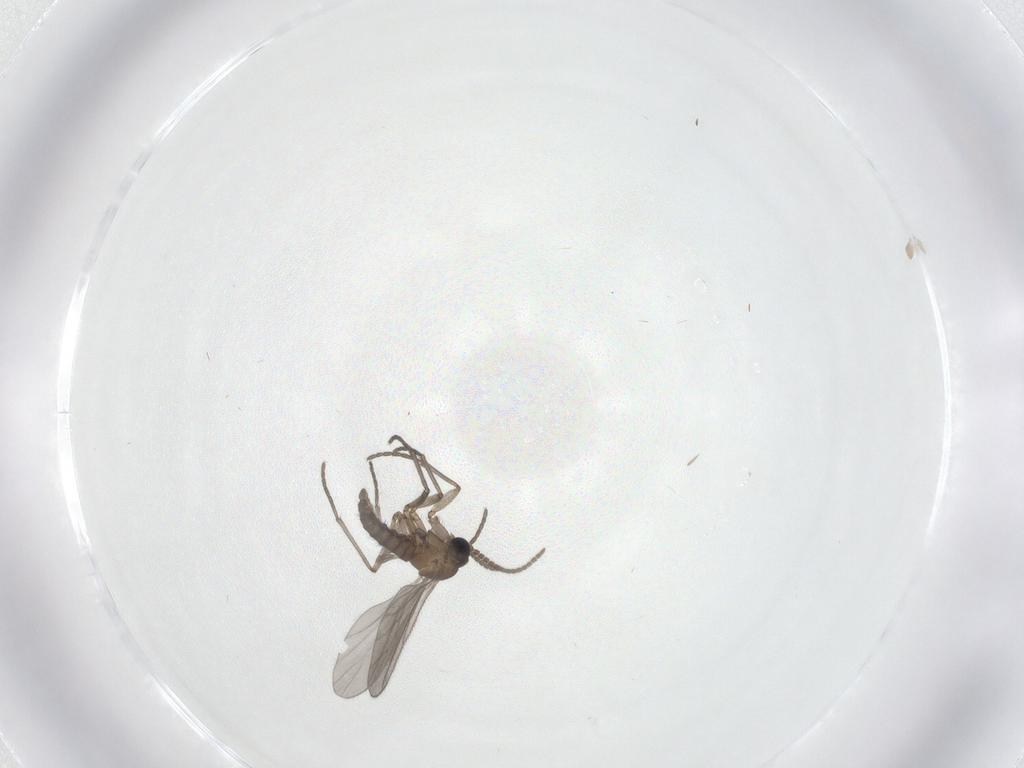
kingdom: Animalia
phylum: Arthropoda
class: Insecta
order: Diptera
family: Sciaridae
